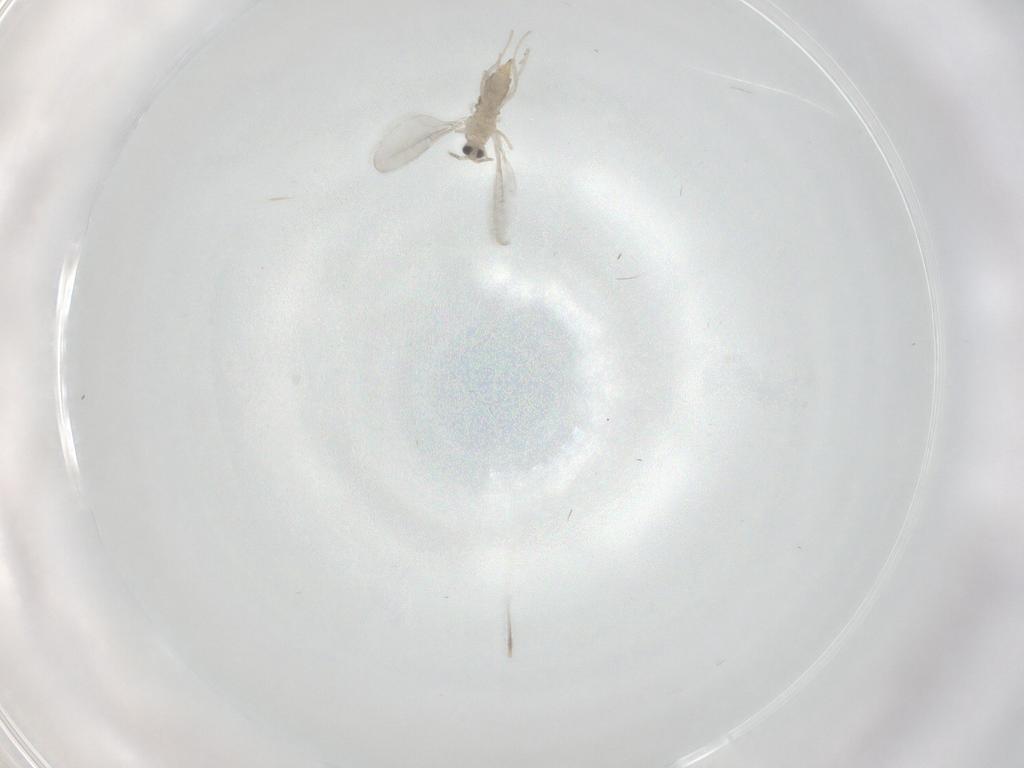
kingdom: Animalia
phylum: Arthropoda
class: Insecta
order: Diptera
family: Cecidomyiidae
